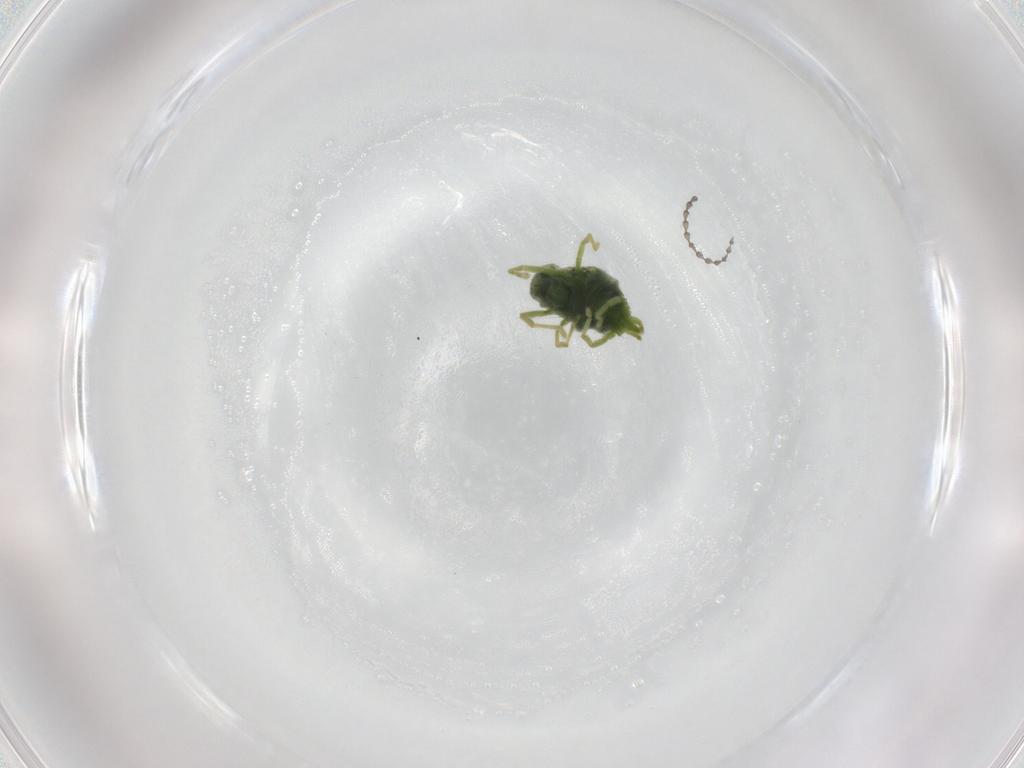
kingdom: Animalia
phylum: Arthropoda
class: Arachnida
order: Trombidiformes
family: Erythraeidae
